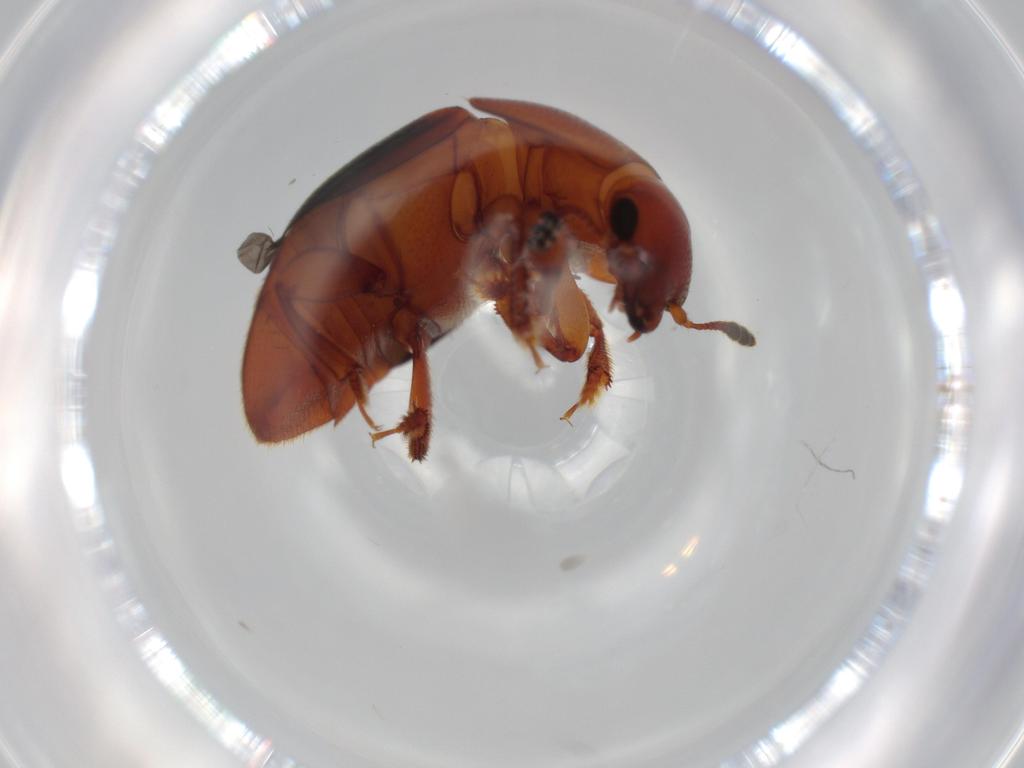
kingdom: Animalia
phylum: Arthropoda
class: Insecta
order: Coleoptera
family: Nitidulidae
